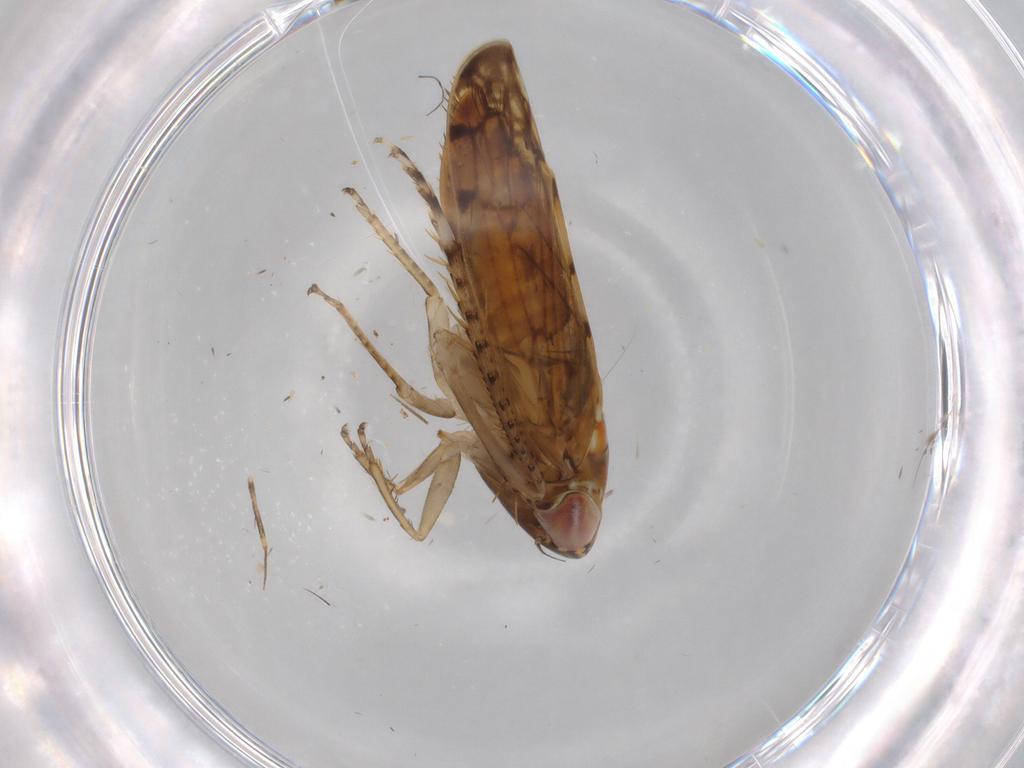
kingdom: Animalia
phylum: Arthropoda
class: Insecta
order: Hemiptera
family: Cicadellidae
